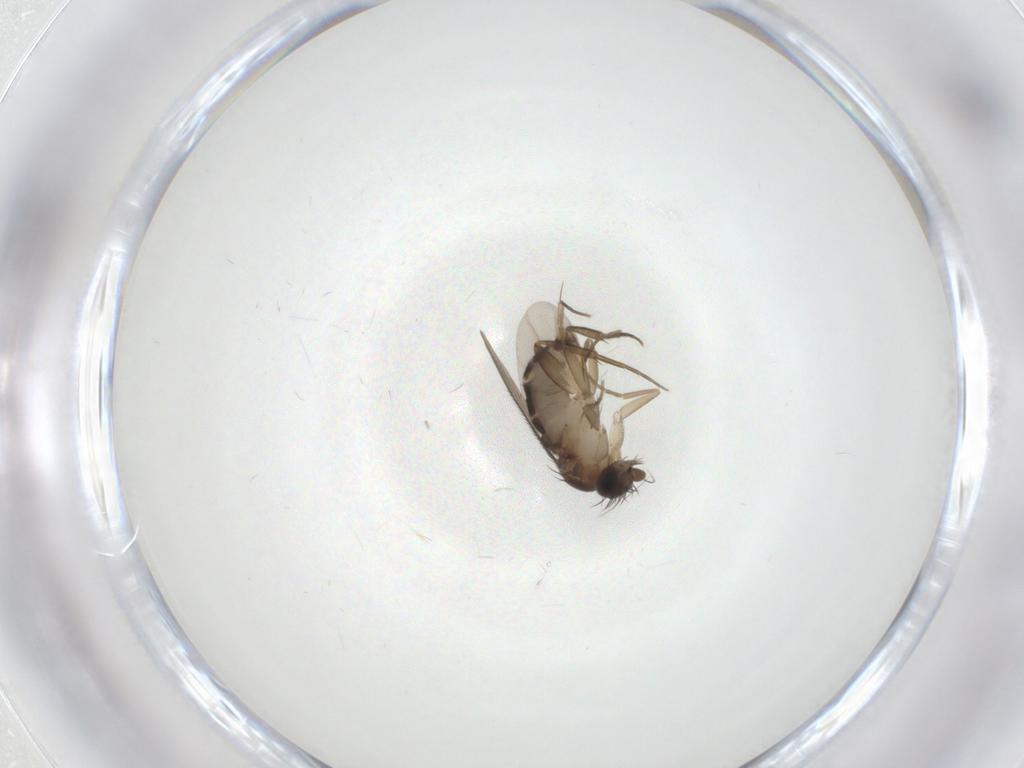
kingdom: Animalia
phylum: Arthropoda
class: Insecta
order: Diptera
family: Phoridae
